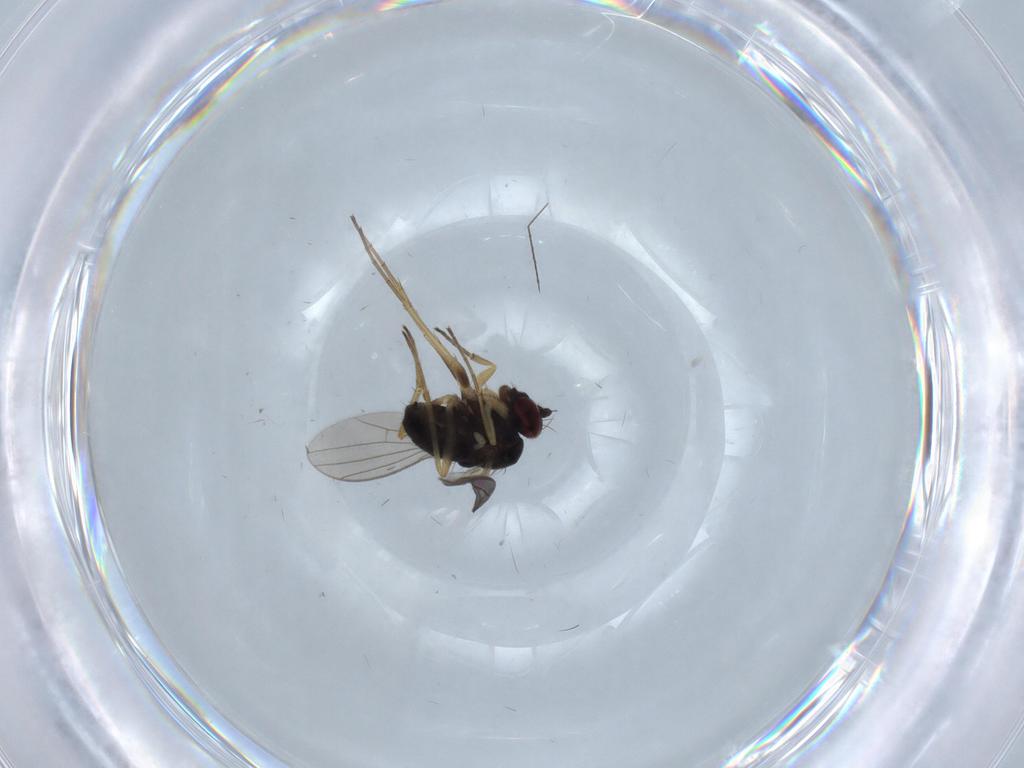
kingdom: Animalia
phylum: Arthropoda
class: Insecta
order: Diptera
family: Dolichopodidae
